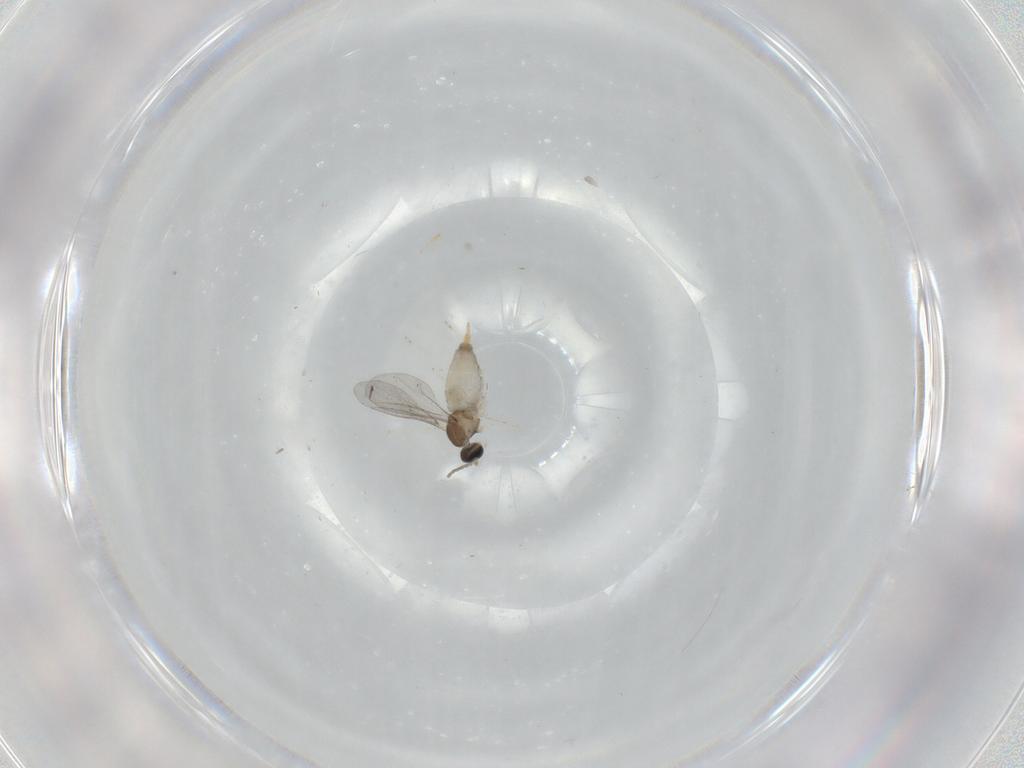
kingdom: Animalia
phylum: Arthropoda
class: Insecta
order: Diptera
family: Cecidomyiidae
